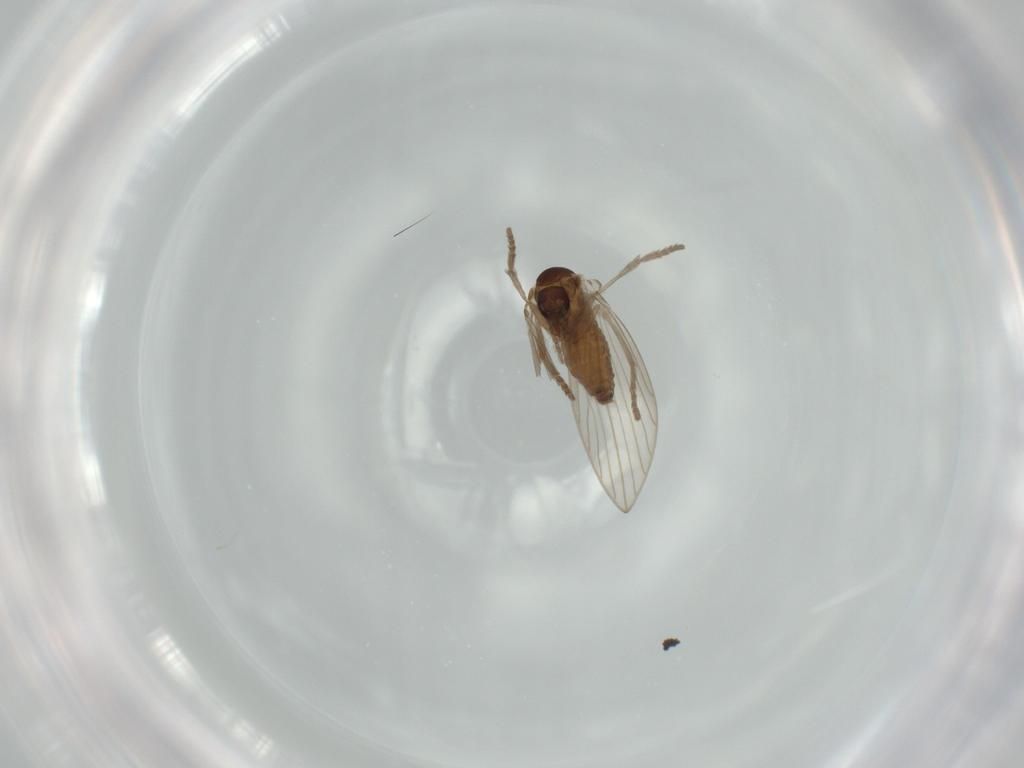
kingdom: Animalia
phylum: Arthropoda
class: Insecta
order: Diptera
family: Psychodidae
